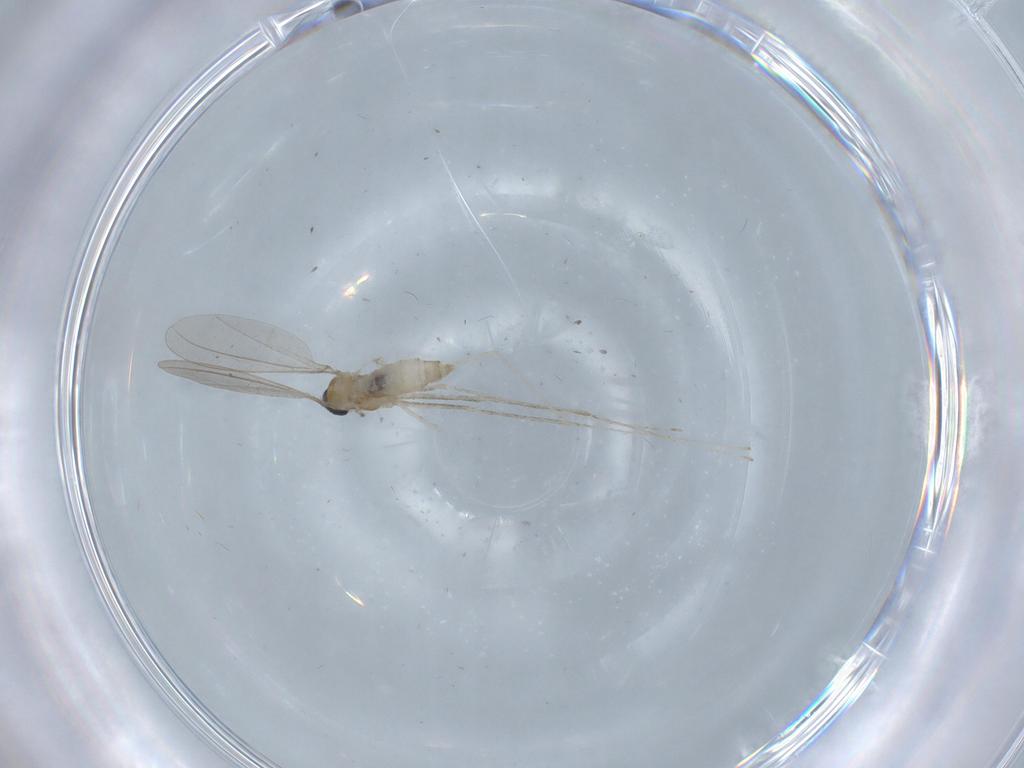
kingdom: Animalia
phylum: Arthropoda
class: Insecta
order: Diptera
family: Cecidomyiidae
